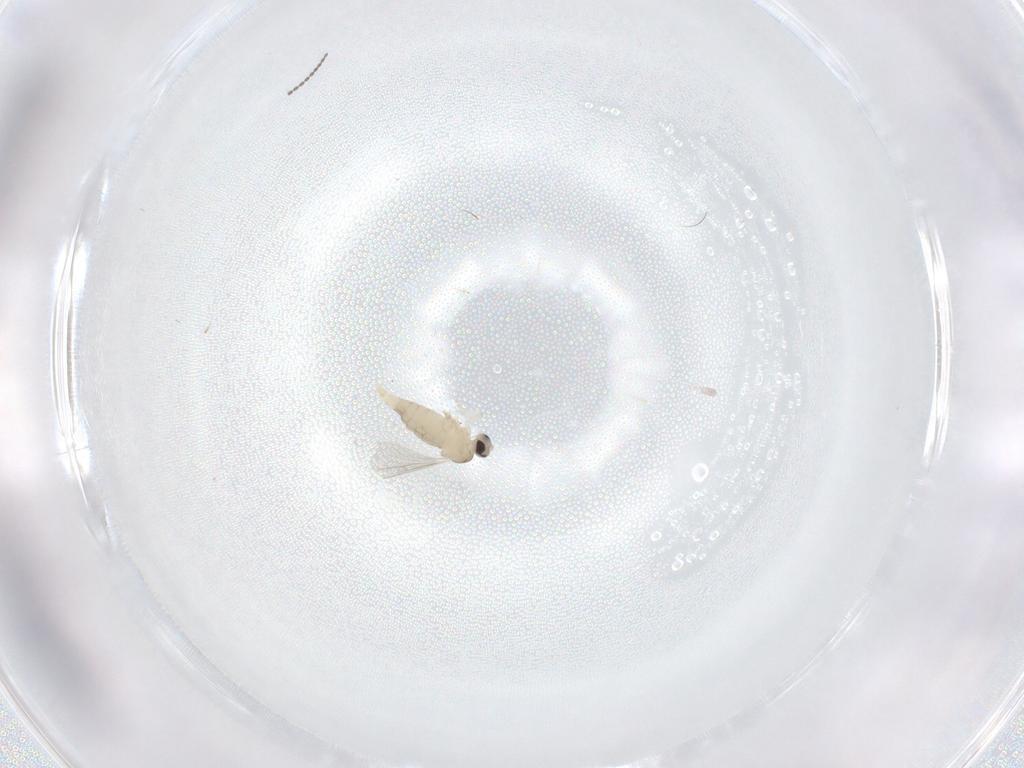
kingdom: Animalia
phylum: Arthropoda
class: Insecta
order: Diptera
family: Cecidomyiidae
